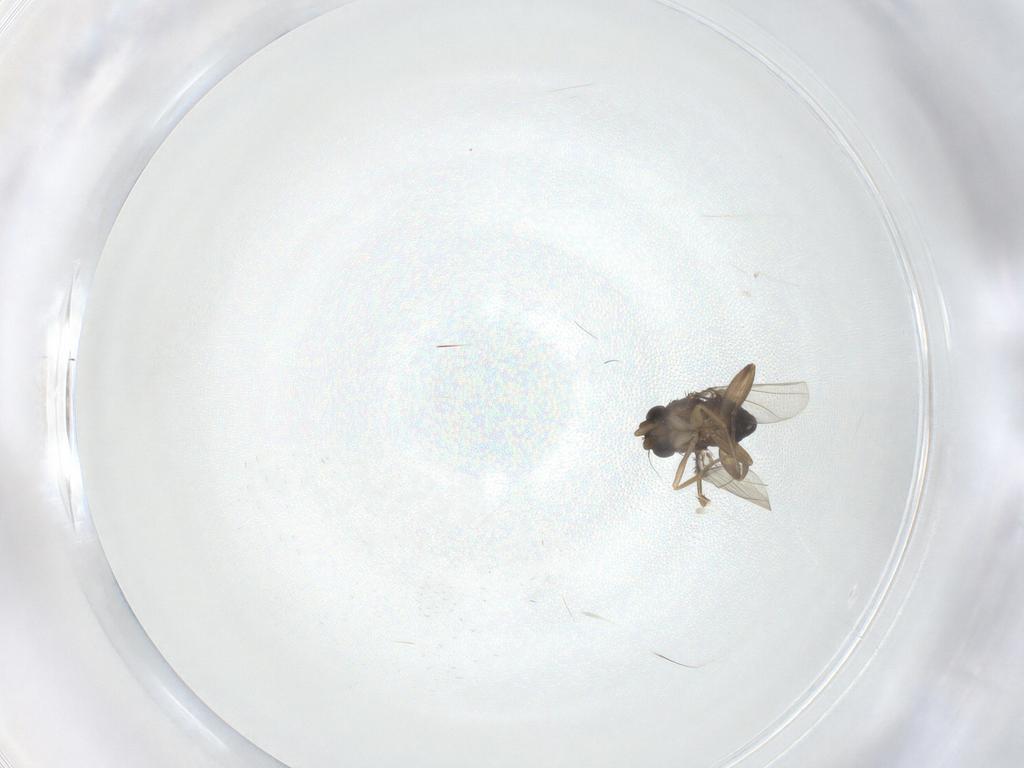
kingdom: Animalia
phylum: Arthropoda
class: Insecta
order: Diptera
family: Phoridae
